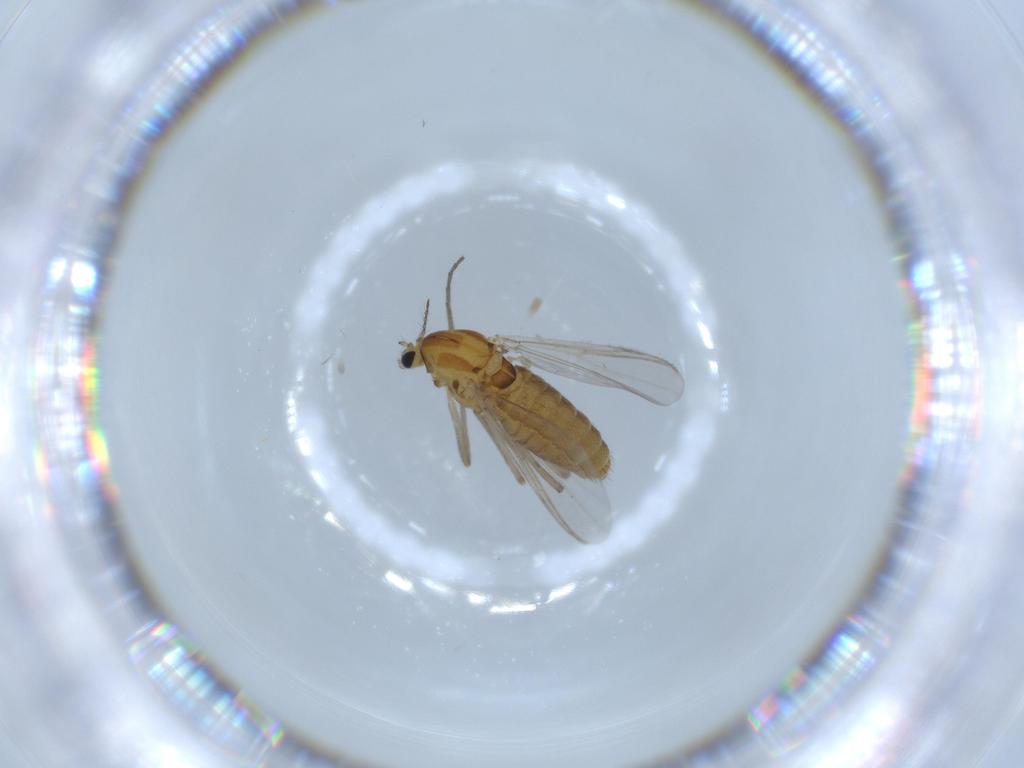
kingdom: Animalia
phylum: Arthropoda
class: Insecta
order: Diptera
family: Chironomidae
